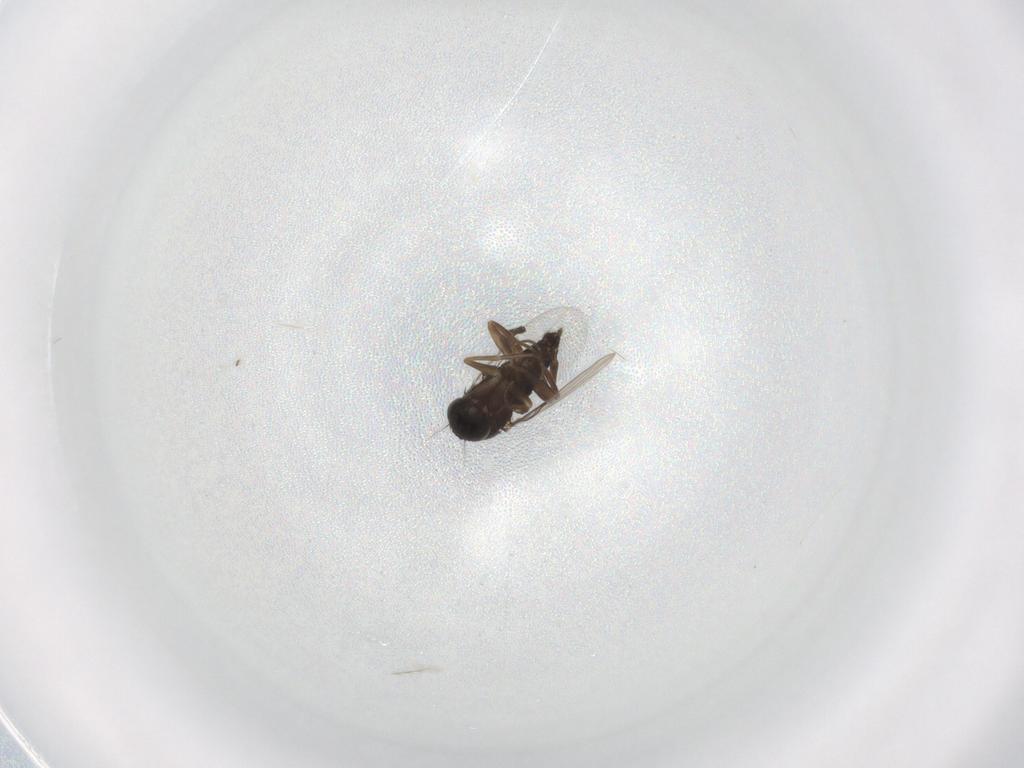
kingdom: Animalia
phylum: Arthropoda
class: Insecta
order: Diptera
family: Phoridae
